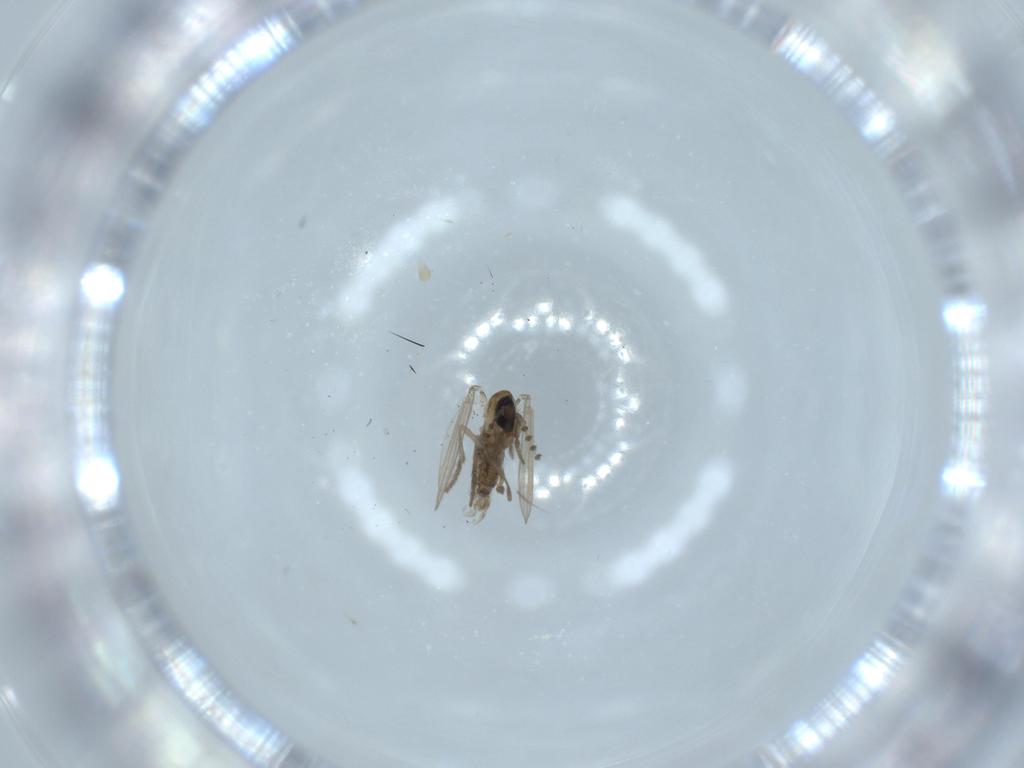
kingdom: Animalia
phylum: Arthropoda
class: Insecta
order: Diptera
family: Psychodidae
